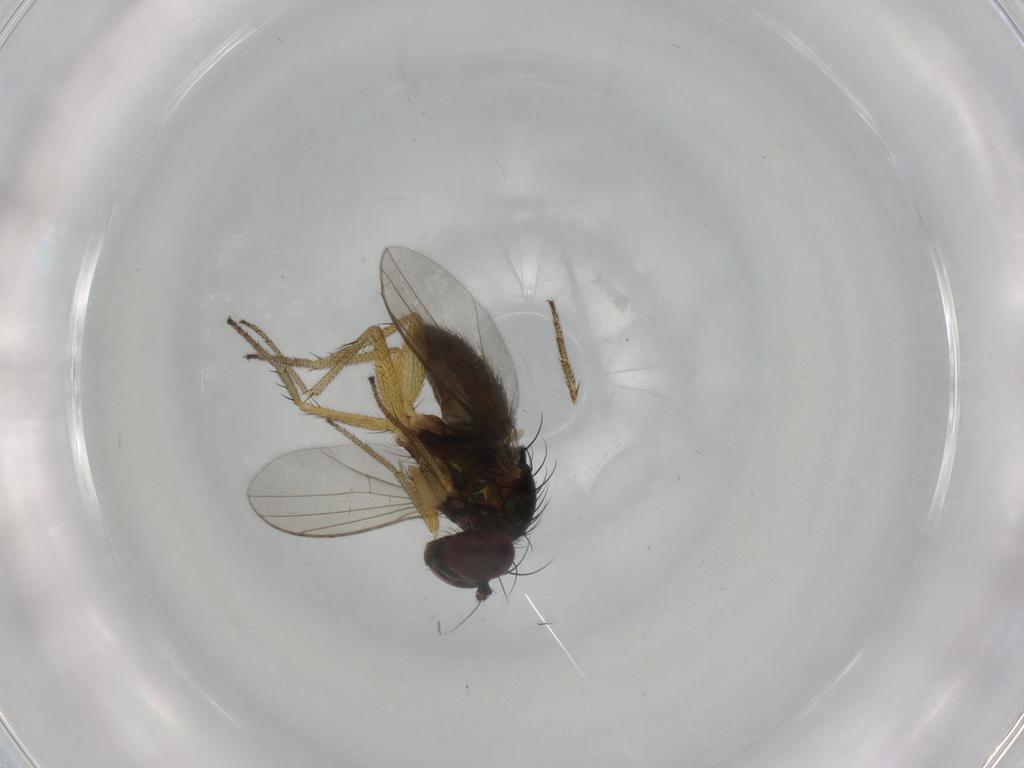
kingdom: Animalia
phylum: Arthropoda
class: Insecta
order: Diptera
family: Dolichopodidae
